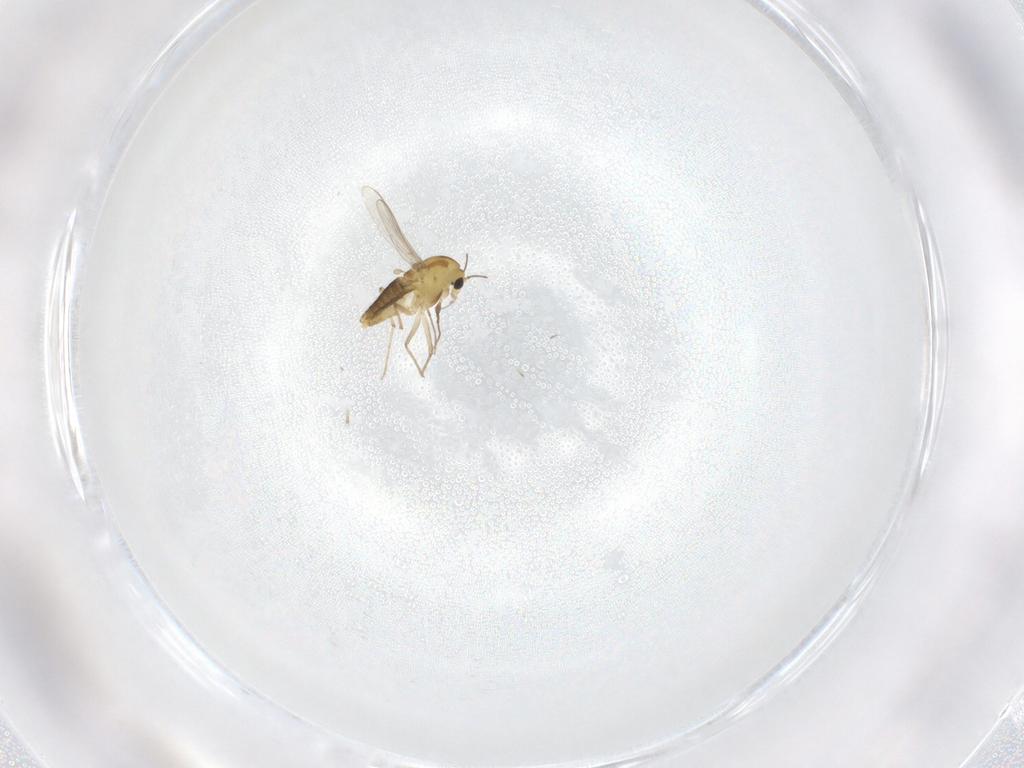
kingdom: Animalia
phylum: Arthropoda
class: Insecta
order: Diptera
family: Chironomidae
